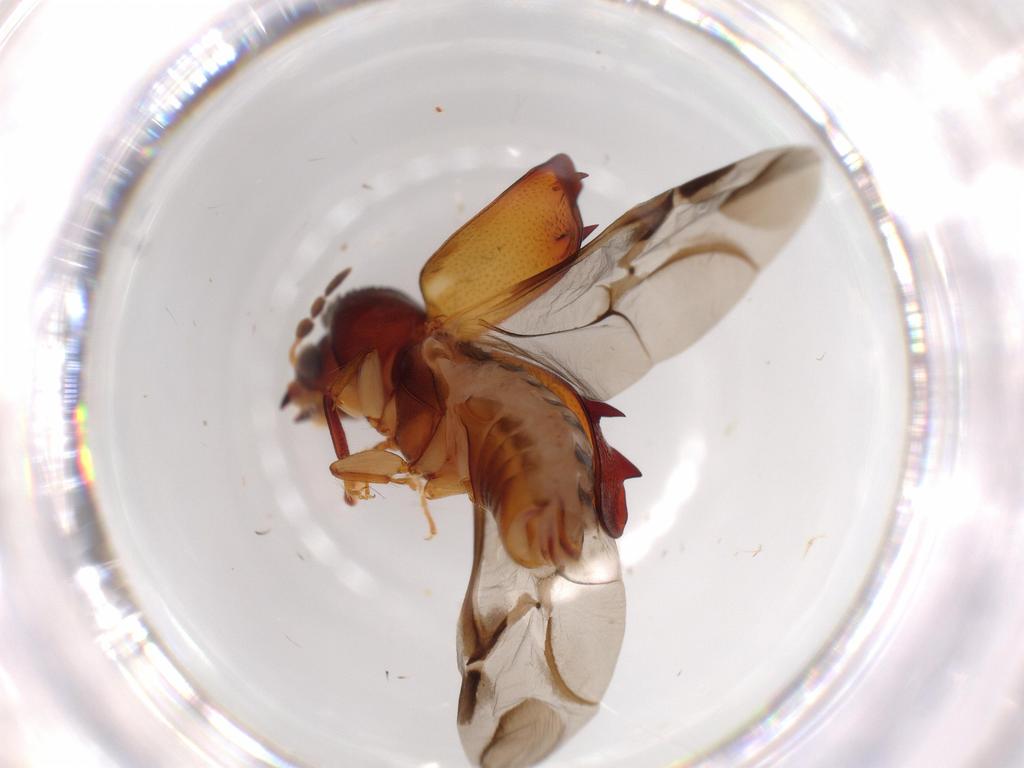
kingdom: Animalia
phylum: Arthropoda
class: Insecta
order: Coleoptera
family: Bostrichidae
